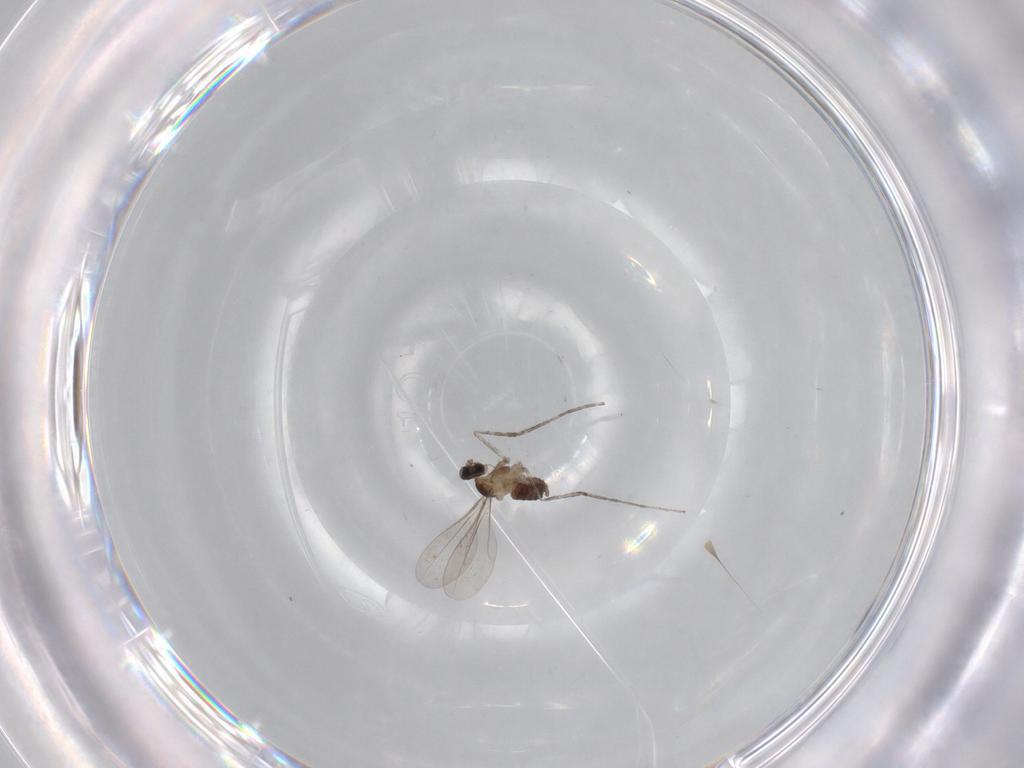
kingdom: Animalia
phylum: Arthropoda
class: Insecta
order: Diptera
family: Cecidomyiidae
